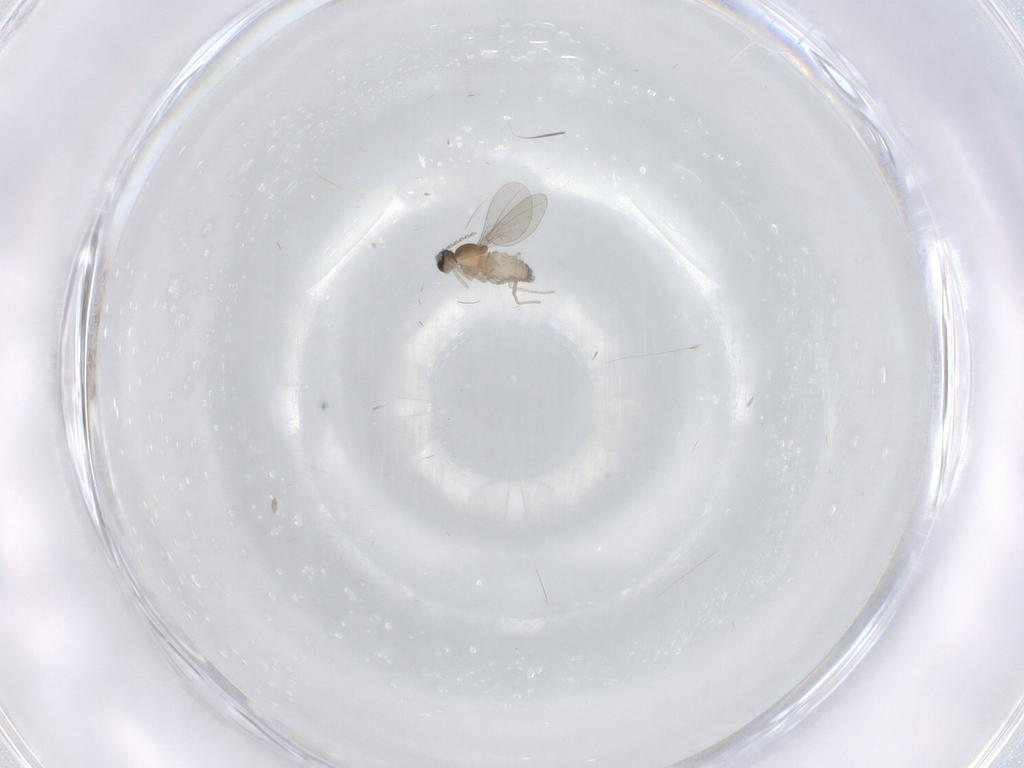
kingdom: Animalia
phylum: Arthropoda
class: Insecta
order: Diptera
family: Cecidomyiidae
